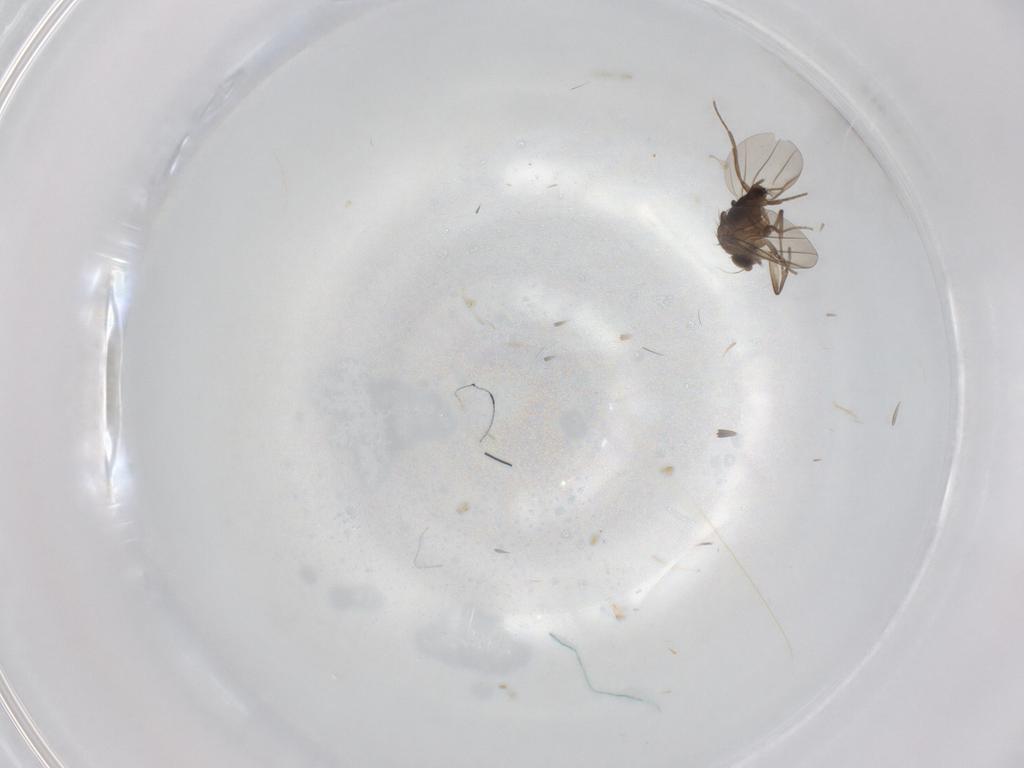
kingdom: Animalia
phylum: Arthropoda
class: Insecta
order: Diptera
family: Phoridae
